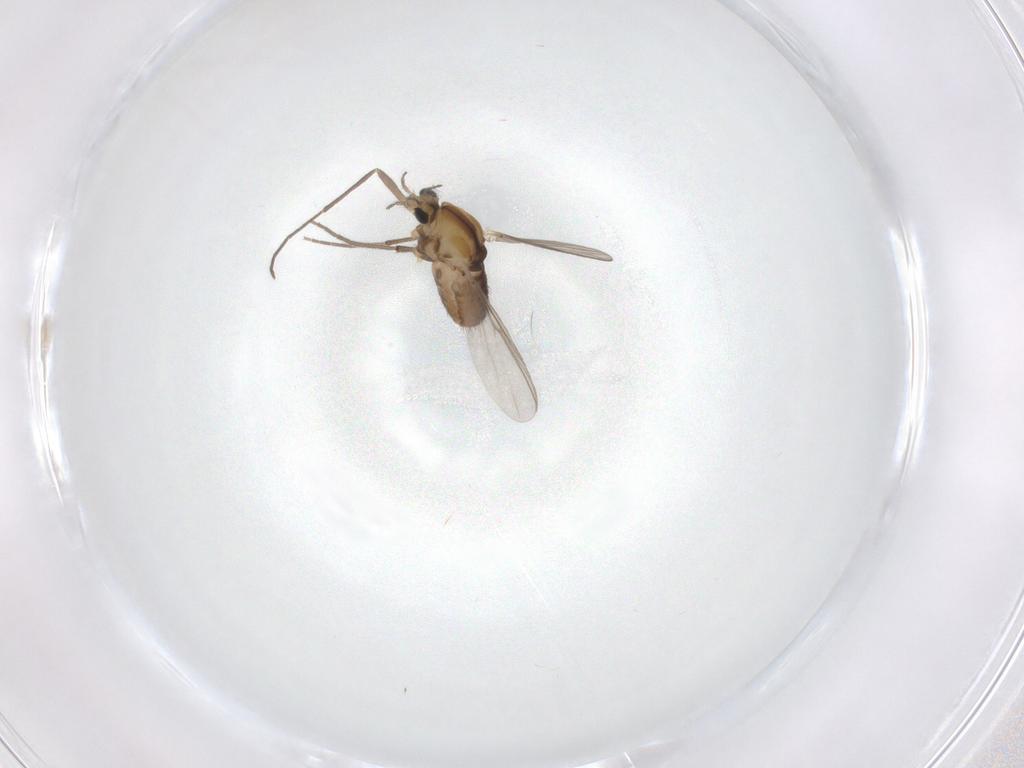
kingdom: Animalia
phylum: Arthropoda
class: Insecta
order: Diptera
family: Chironomidae
